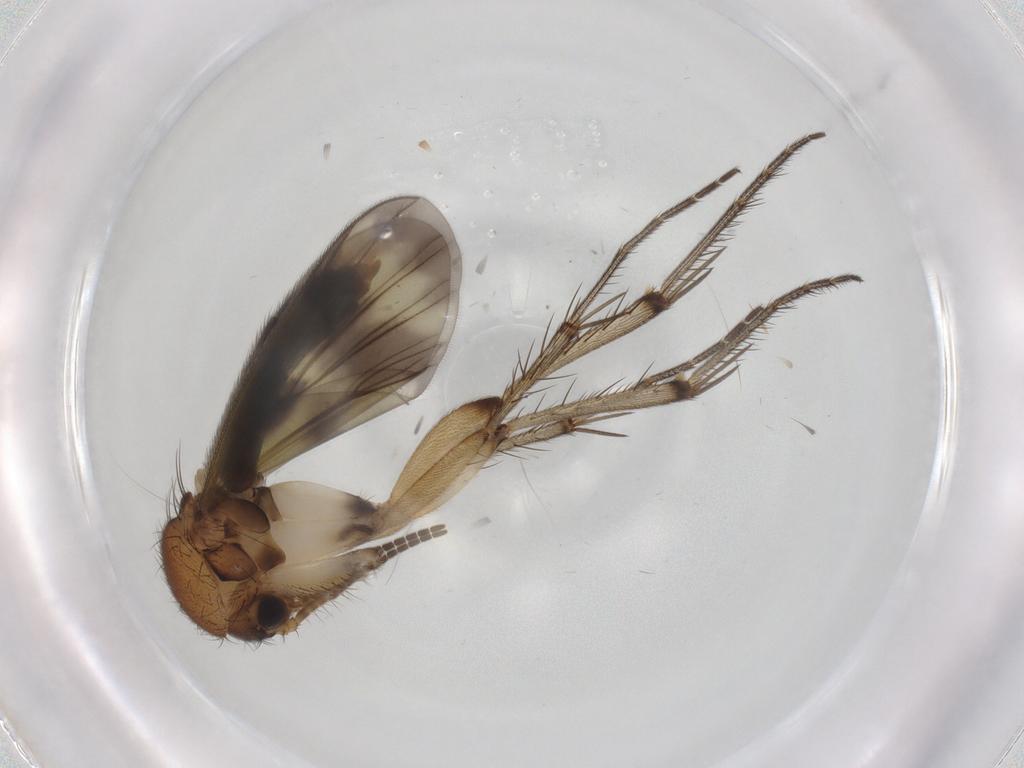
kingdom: Animalia
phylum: Arthropoda
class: Insecta
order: Diptera
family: Mycetophilidae
